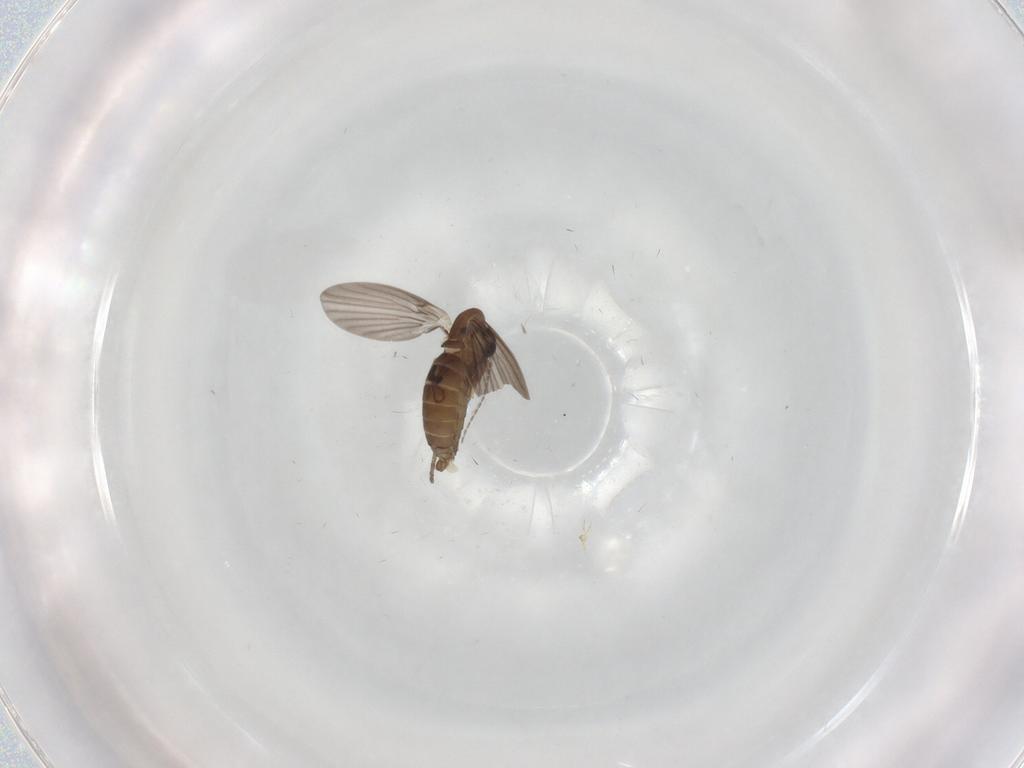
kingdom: Animalia
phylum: Arthropoda
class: Insecta
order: Diptera
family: Psychodidae
